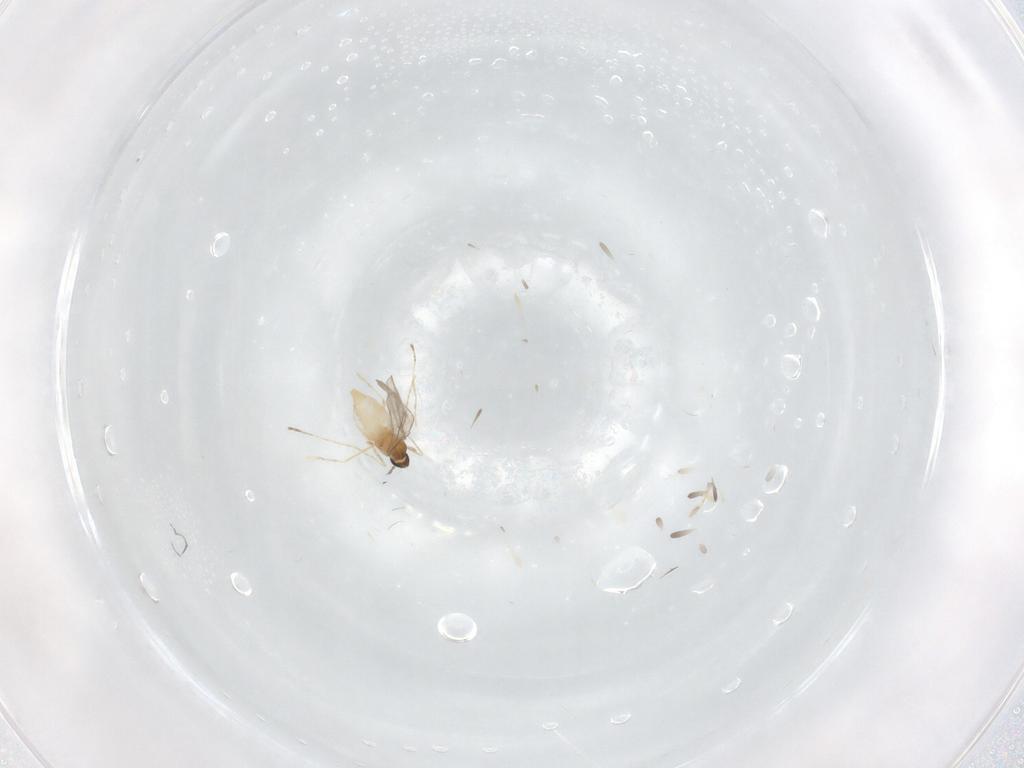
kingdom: Animalia
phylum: Arthropoda
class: Insecta
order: Diptera
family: Cecidomyiidae
